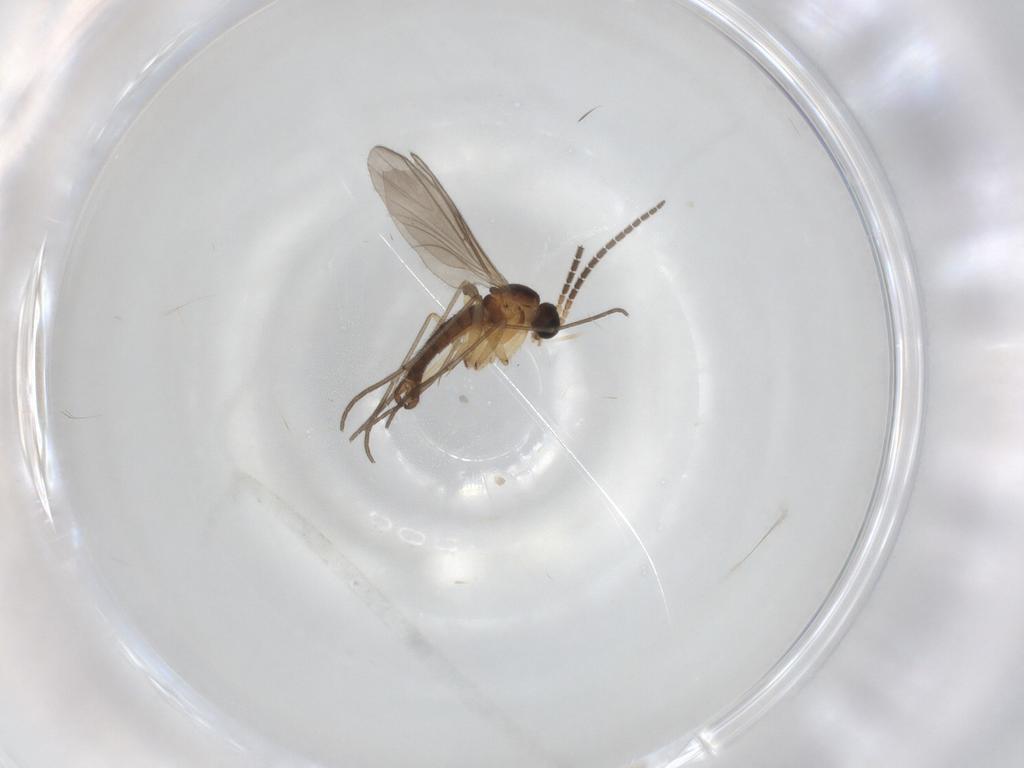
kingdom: Animalia
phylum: Arthropoda
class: Insecta
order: Diptera
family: Chironomidae
